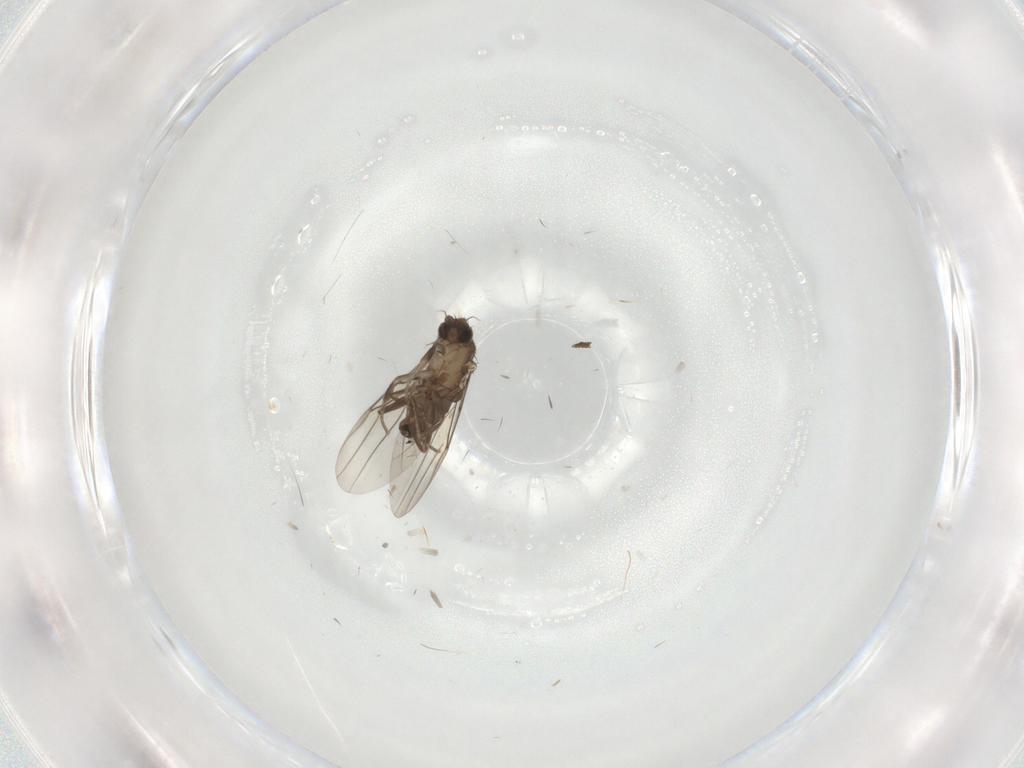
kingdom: Animalia
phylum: Arthropoda
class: Insecta
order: Diptera
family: Phoridae
